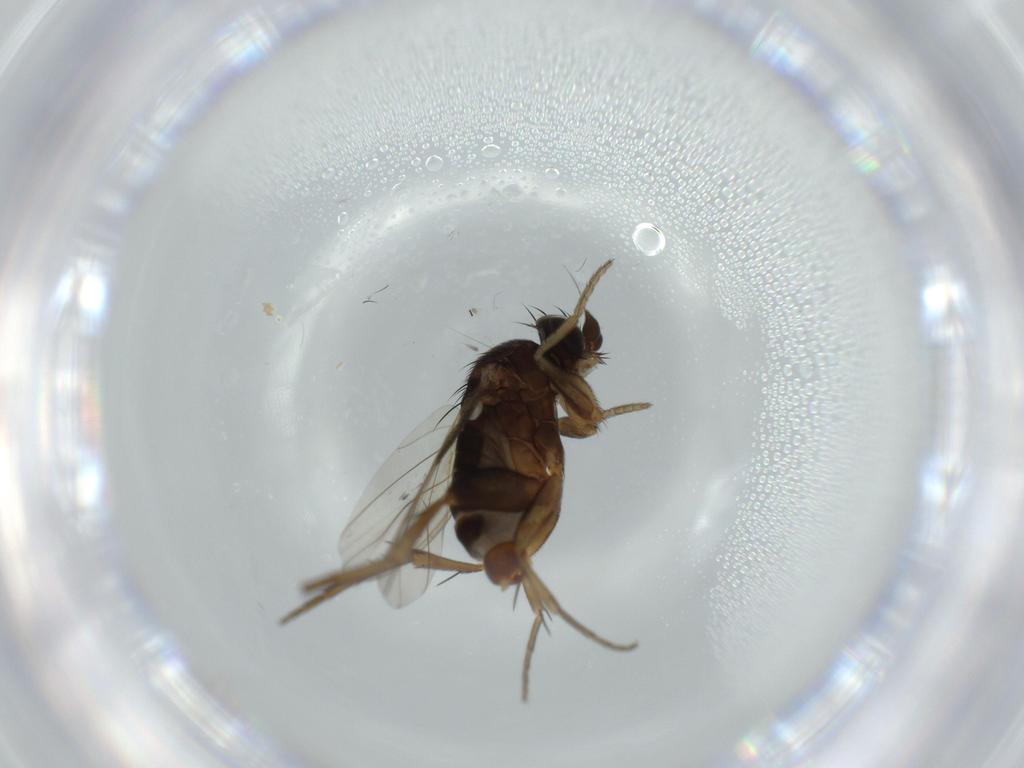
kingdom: Animalia
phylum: Arthropoda
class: Insecta
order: Diptera
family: Phoridae
